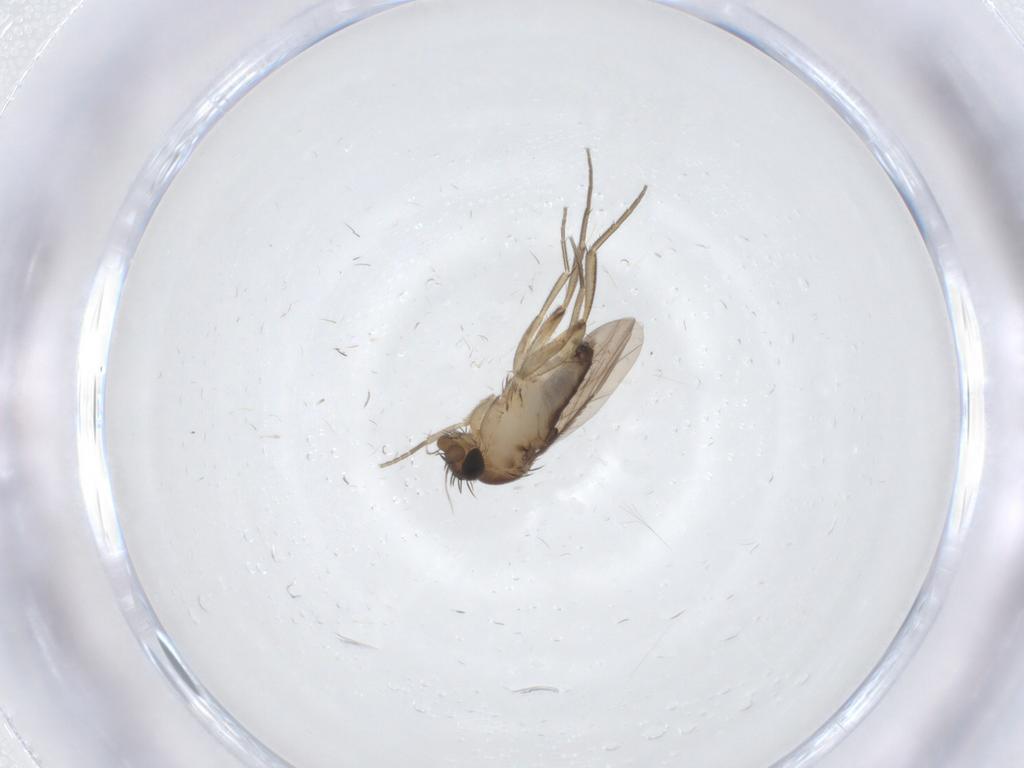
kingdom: Animalia
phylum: Arthropoda
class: Insecta
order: Diptera
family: Phoridae
